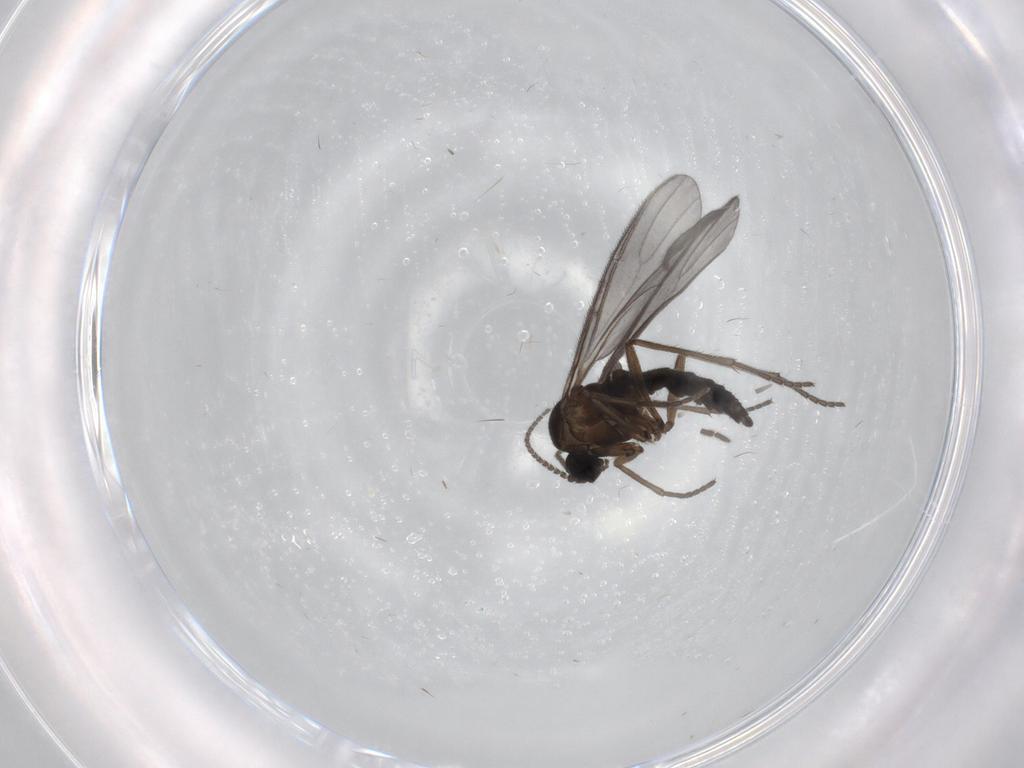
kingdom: Animalia
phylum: Arthropoda
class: Insecta
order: Diptera
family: Sciaridae
